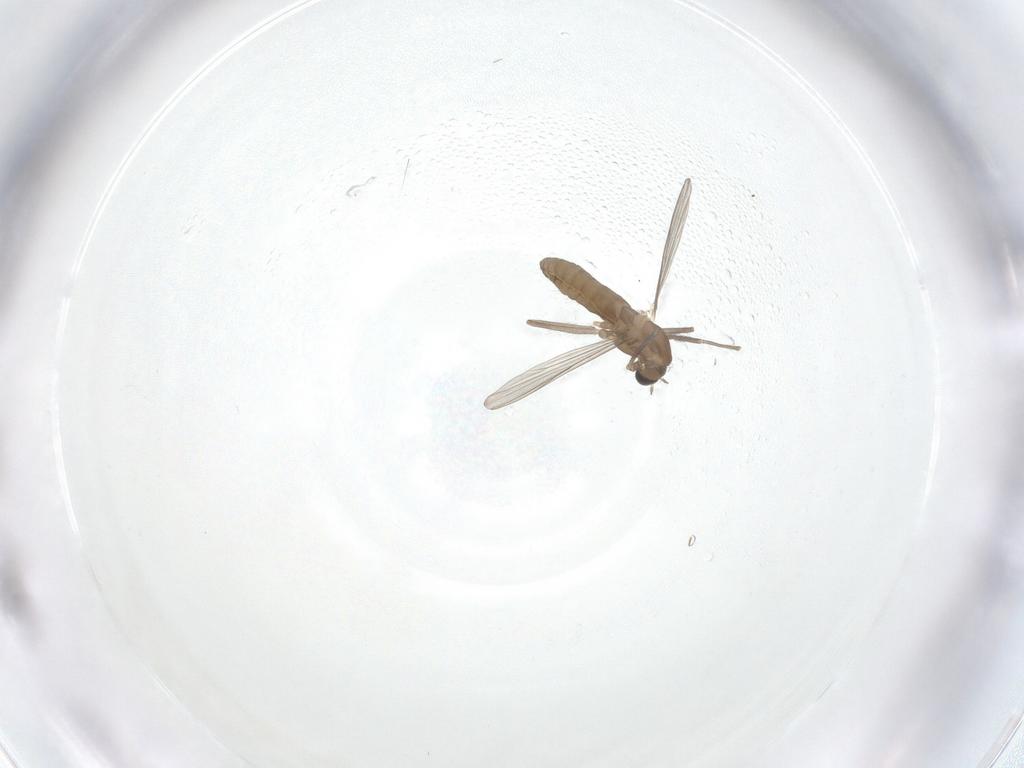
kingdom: Animalia
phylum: Arthropoda
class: Insecta
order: Diptera
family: Chironomidae
